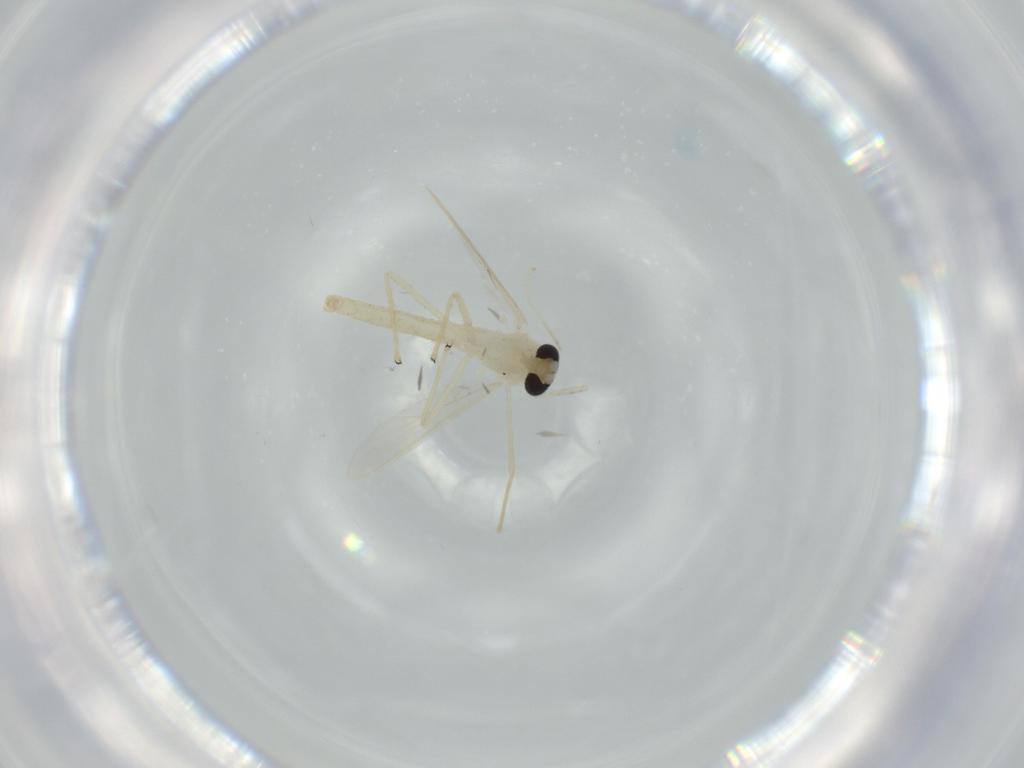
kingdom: Animalia
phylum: Arthropoda
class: Insecta
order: Diptera
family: Chironomidae
